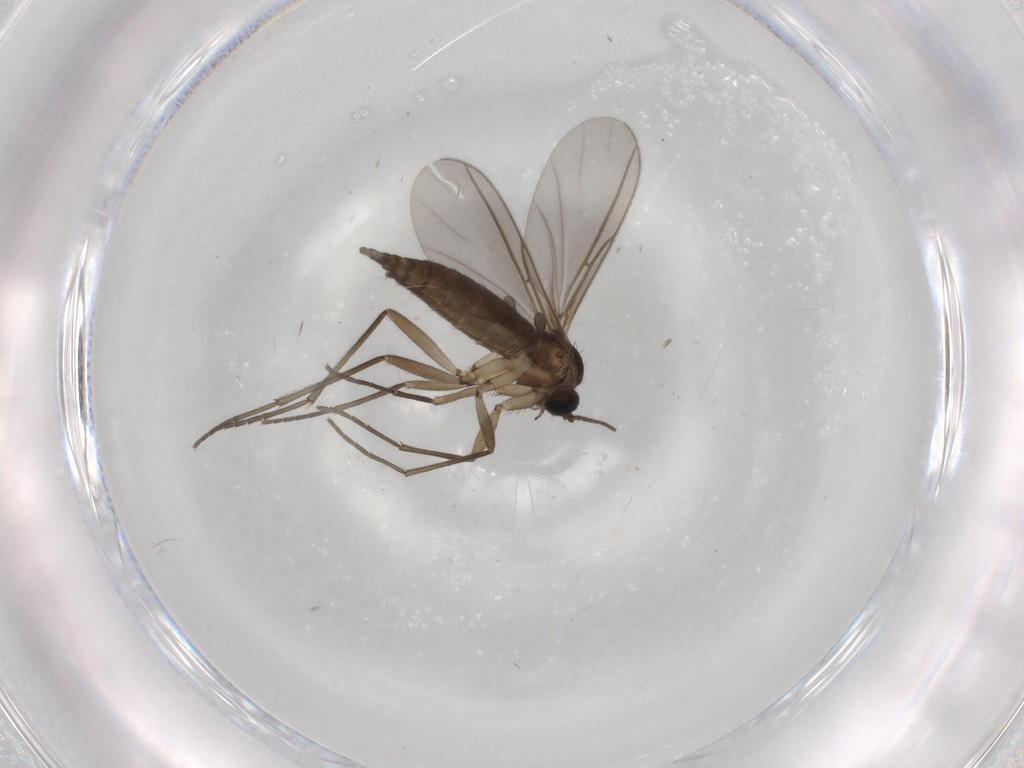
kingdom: Animalia
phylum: Arthropoda
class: Insecta
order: Diptera
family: Sciaridae
